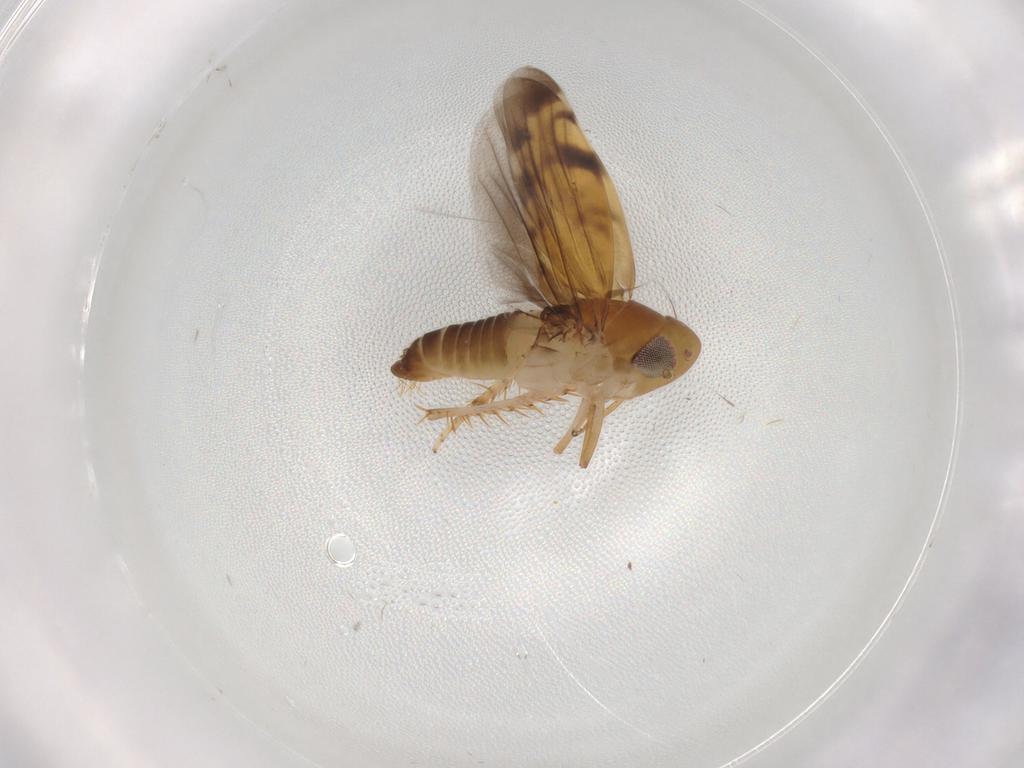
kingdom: Animalia
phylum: Arthropoda
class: Insecta
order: Hemiptera
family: Cicadellidae
